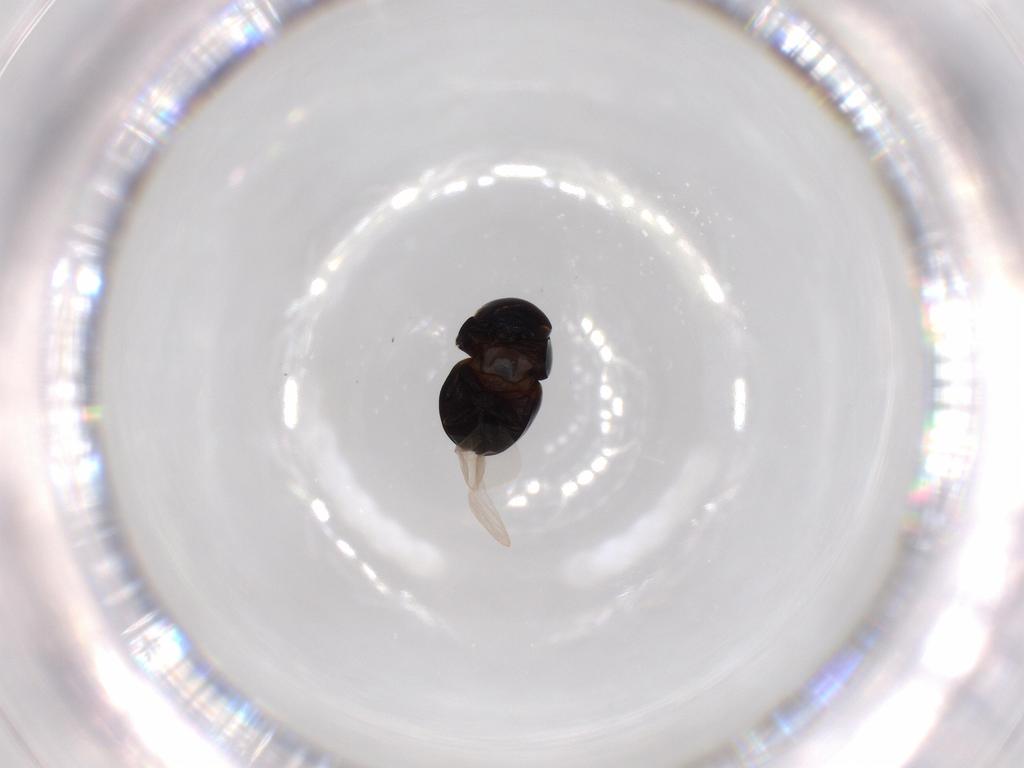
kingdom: Animalia
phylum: Arthropoda
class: Insecta
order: Coleoptera
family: Cybocephalidae
